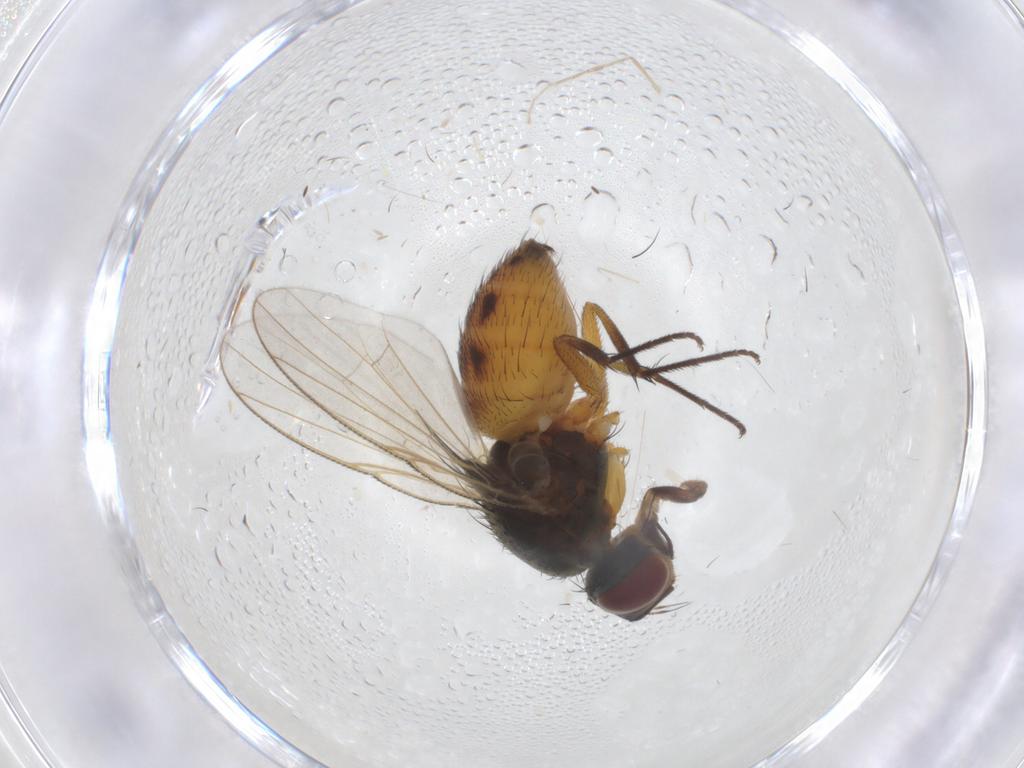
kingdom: Animalia
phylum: Arthropoda
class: Insecta
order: Diptera
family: Muscidae
